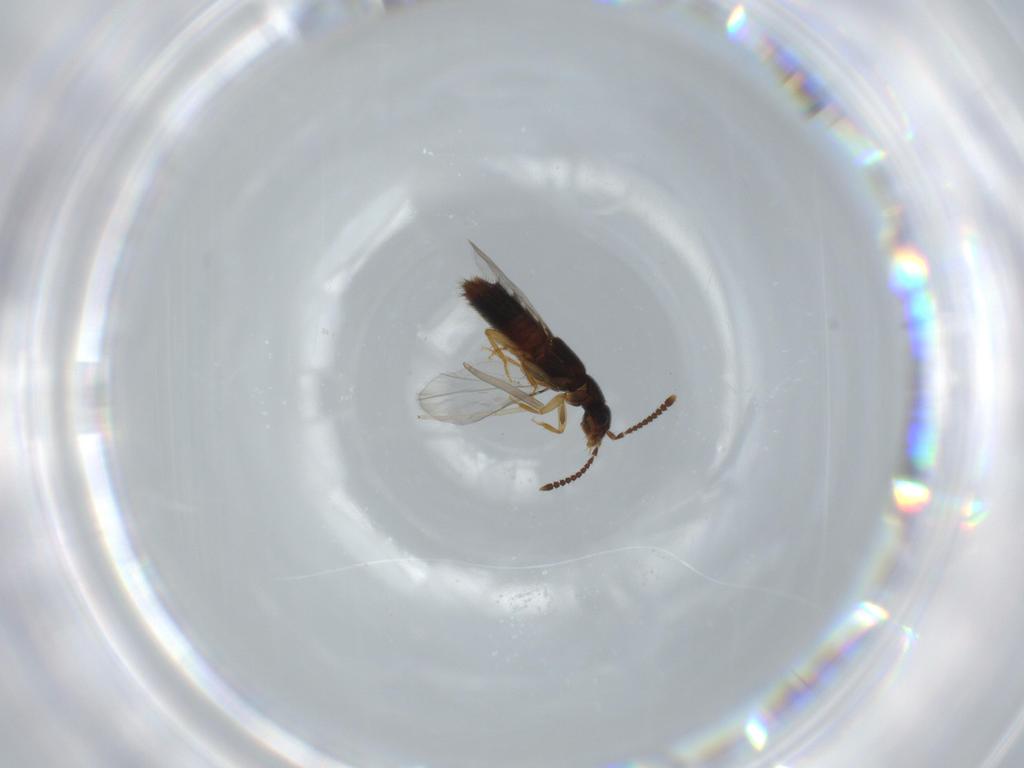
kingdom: Animalia
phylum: Arthropoda
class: Insecta
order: Coleoptera
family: Staphylinidae
